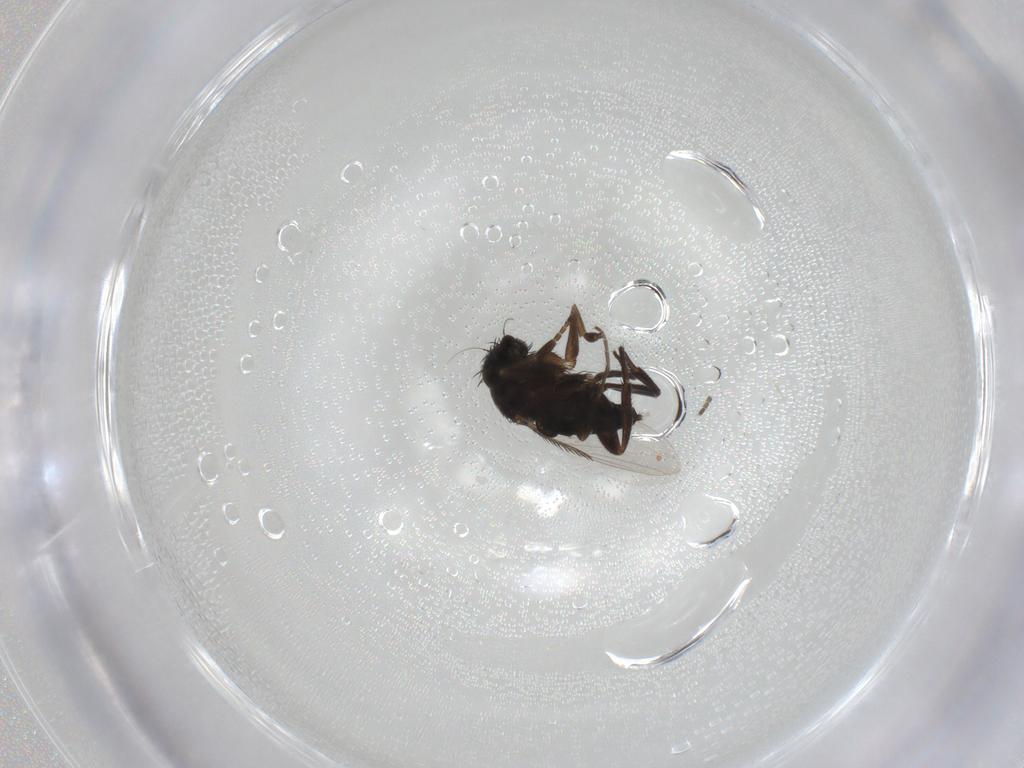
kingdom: Animalia
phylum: Arthropoda
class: Insecta
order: Diptera
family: Phoridae
